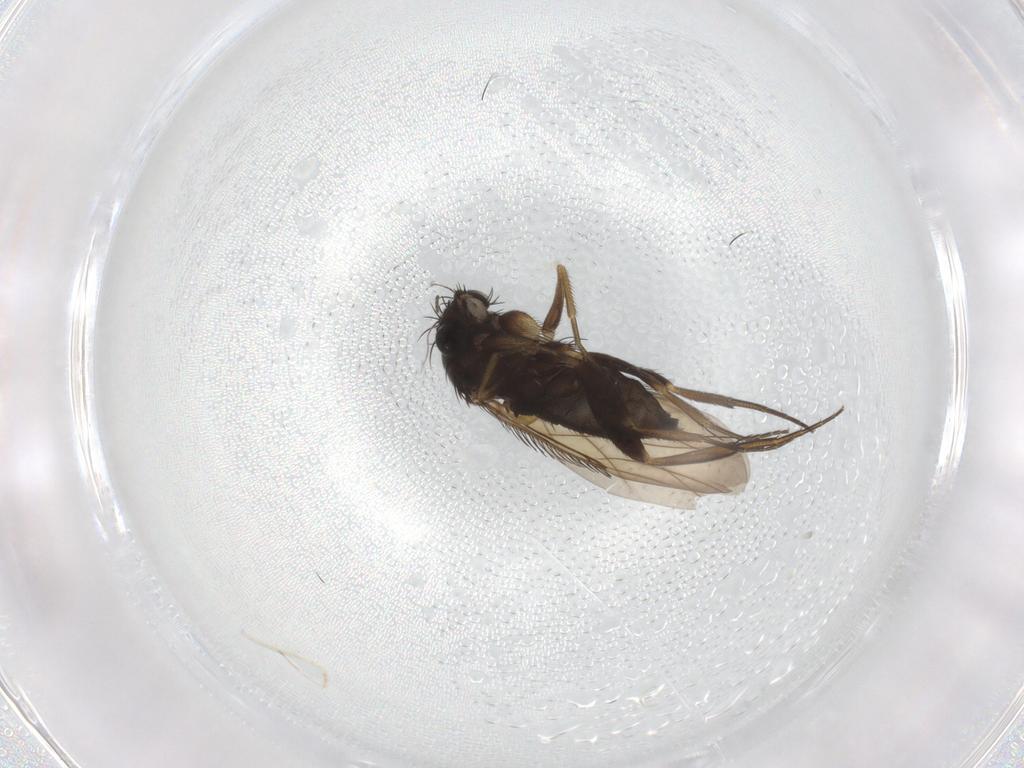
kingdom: Animalia
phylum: Arthropoda
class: Insecta
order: Diptera
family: Phoridae
